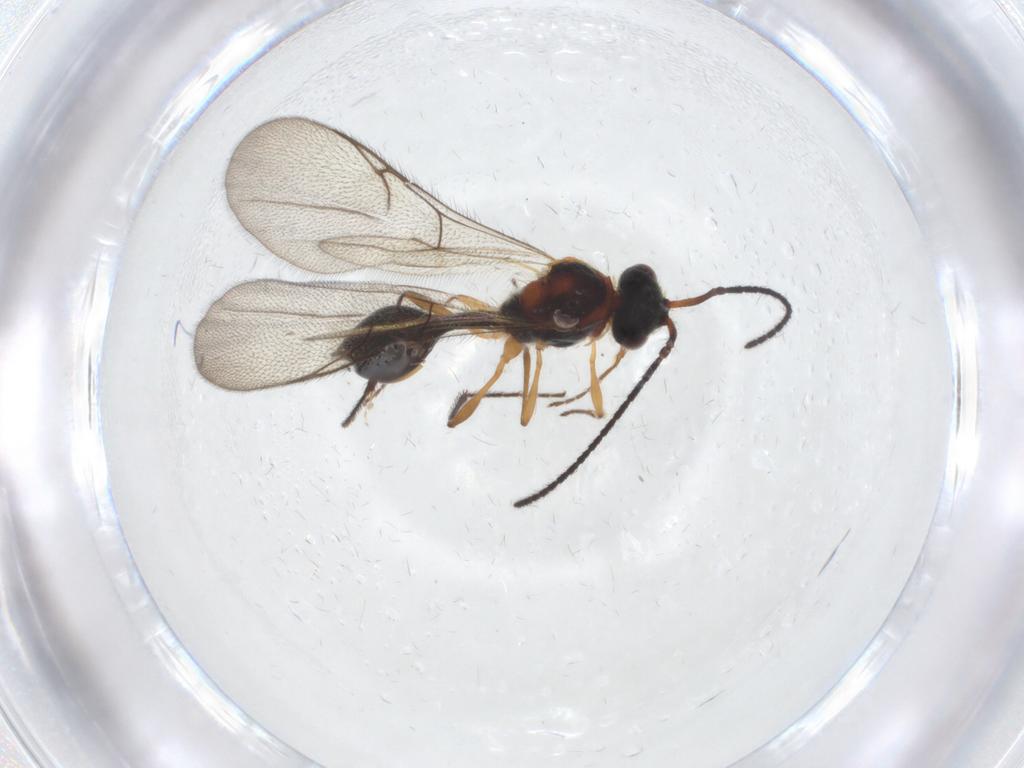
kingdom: Animalia
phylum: Arthropoda
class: Insecta
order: Hymenoptera
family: Diapriidae
